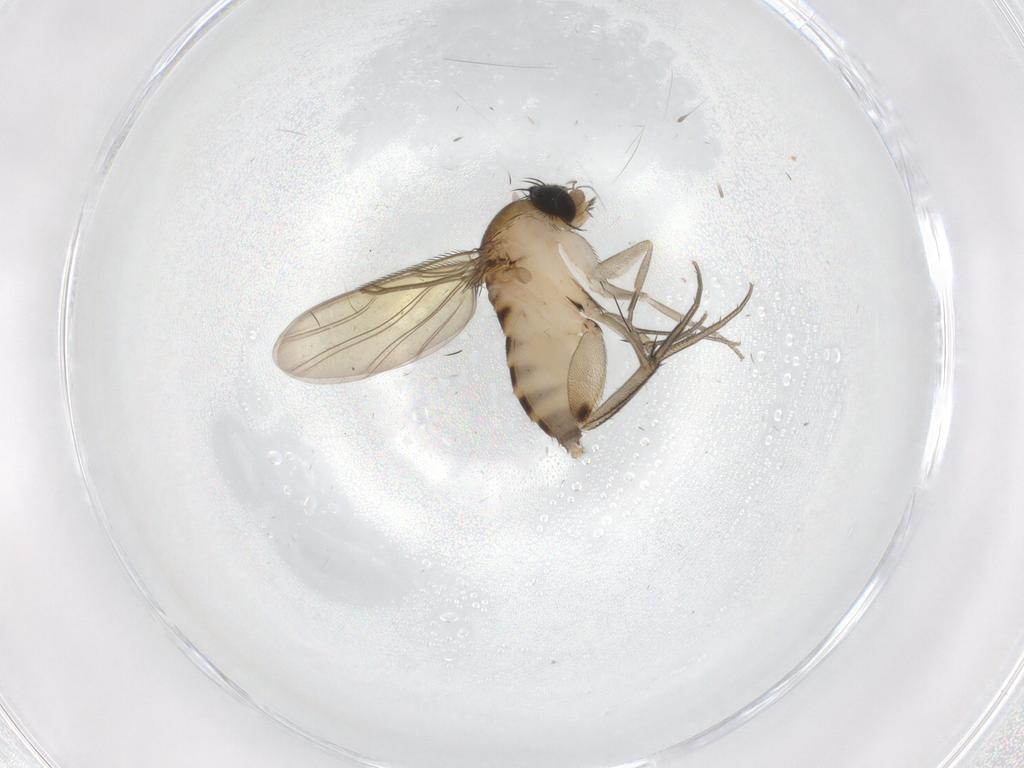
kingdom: Animalia
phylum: Arthropoda
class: Insecta
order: Diptera
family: Phoridae
